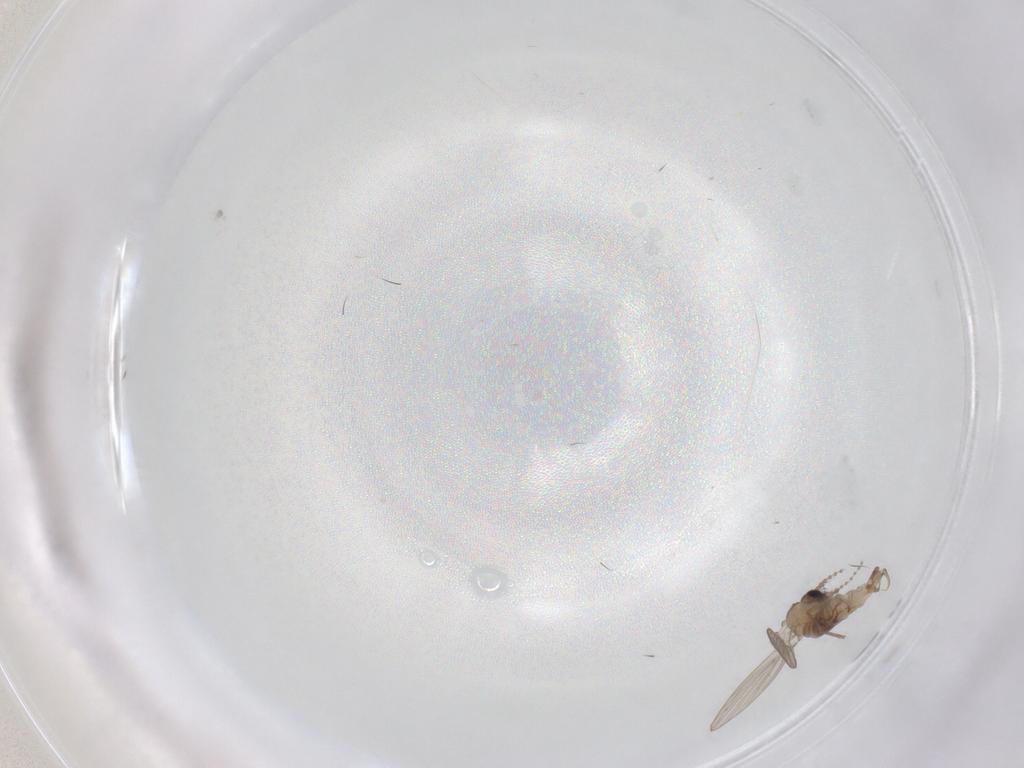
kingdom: Animalia
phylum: Arthropoda
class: Insecta
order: Diptera
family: Psychodidae
